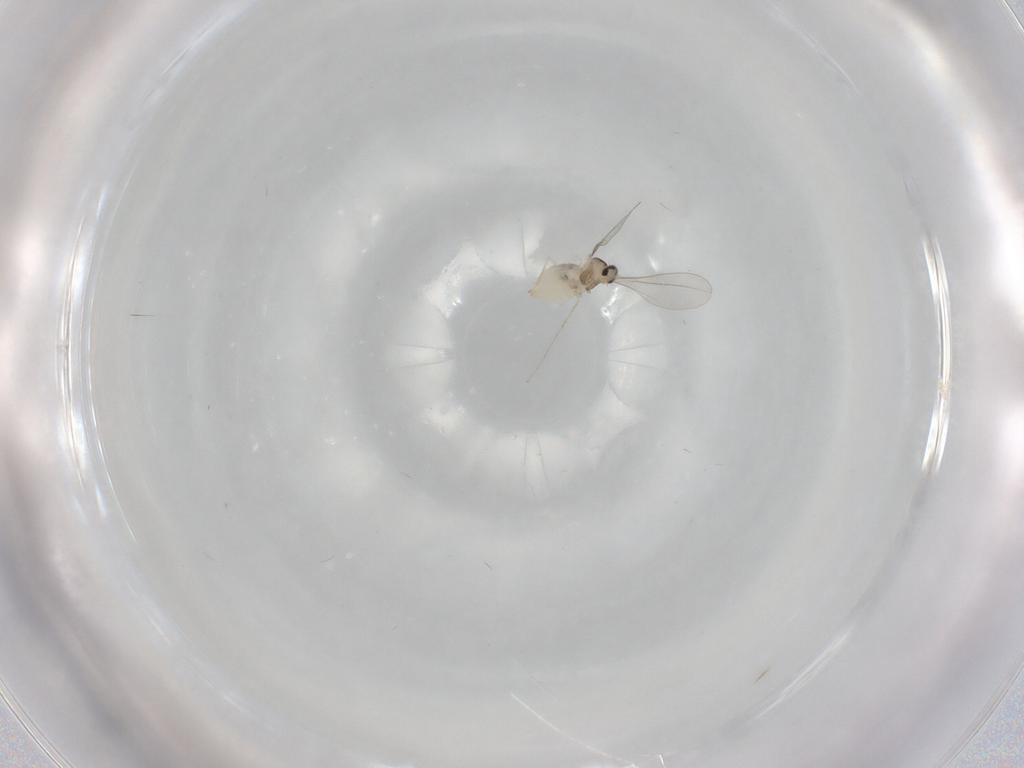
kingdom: Animalia
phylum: Arthropoda
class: Insecta
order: Diptera
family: Cecidomyiidae
